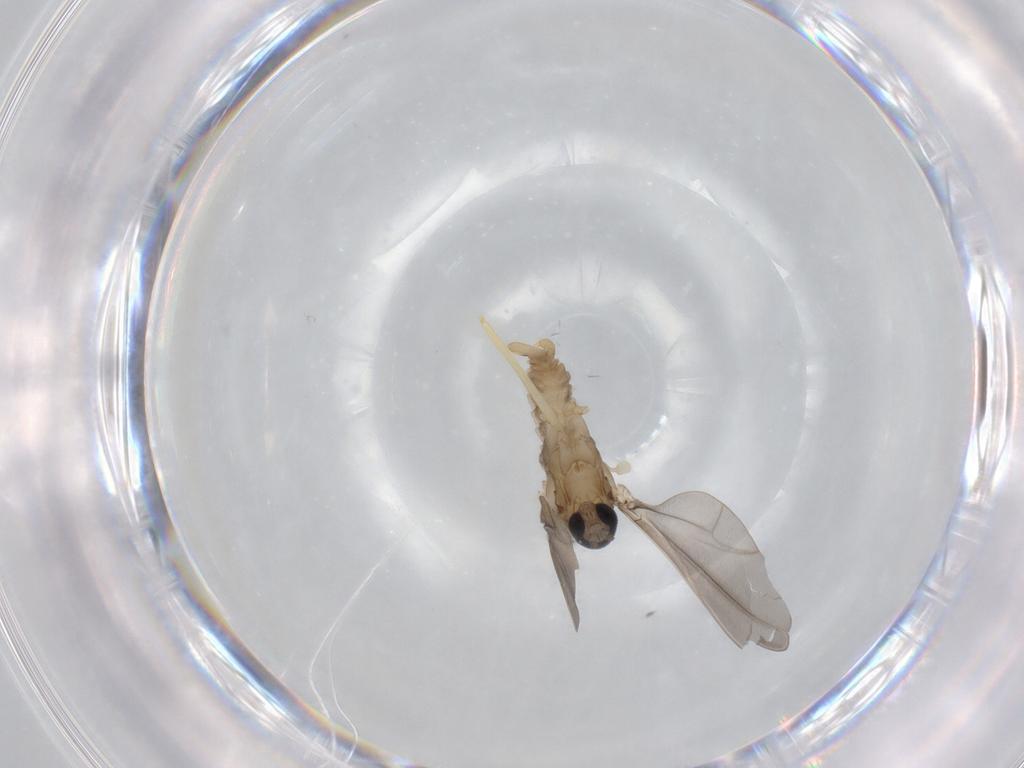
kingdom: Animalia
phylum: Arthropoda
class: Insecta
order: Diptera
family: Cecidomyiidae
